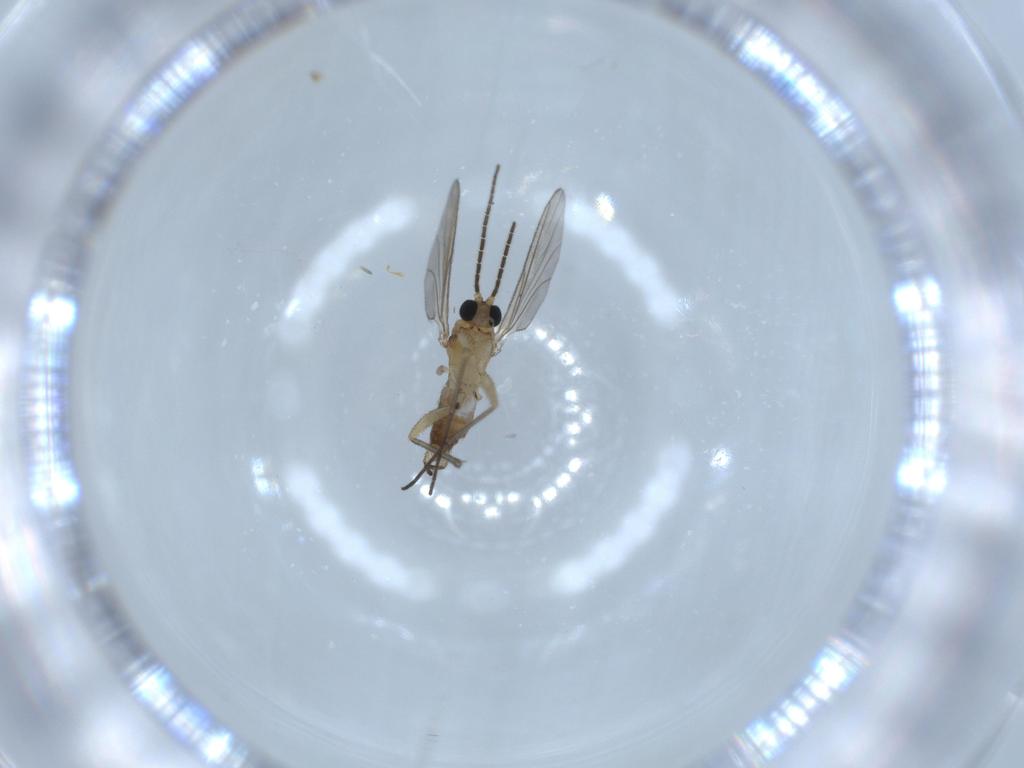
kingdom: Animalia
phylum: Arthropoda
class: Insecta
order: Diptera
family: Sciaridae
